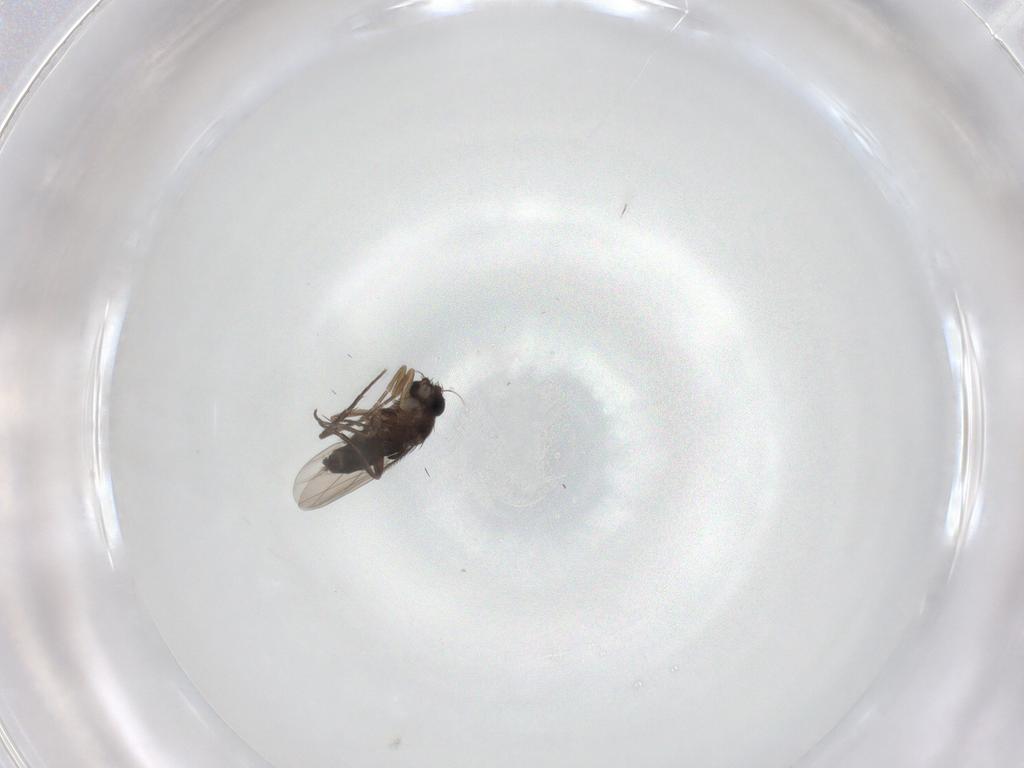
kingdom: Animalia
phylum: Arthropoda
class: Insecta
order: Diptera
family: Phoridae
